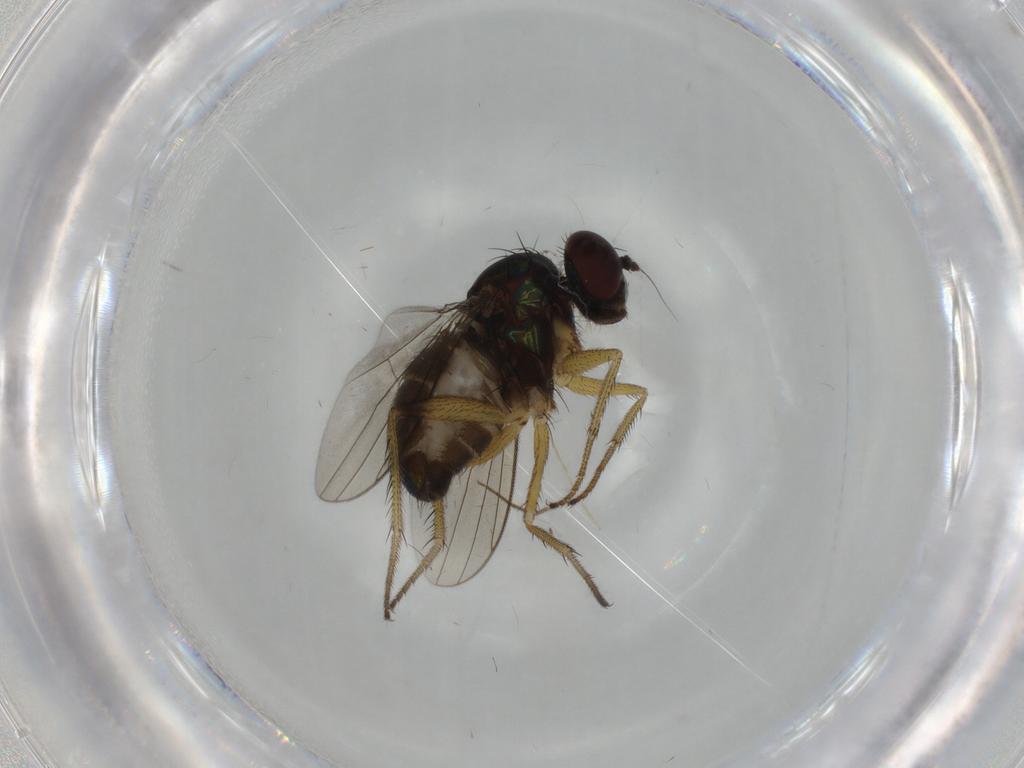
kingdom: Animalia
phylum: Arthropoda
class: Insecta
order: Diptera
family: Dolichopodidae
